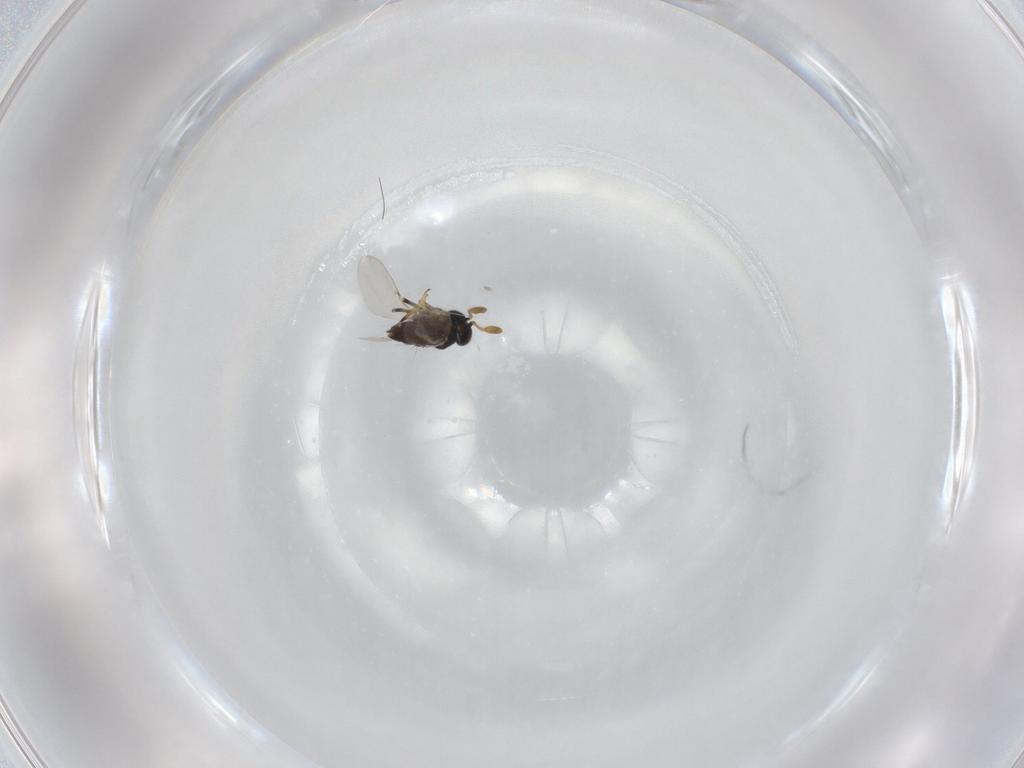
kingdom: Animalia
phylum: Arthropoda
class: Insecta
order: Hymenoptera
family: Encyrtidae
